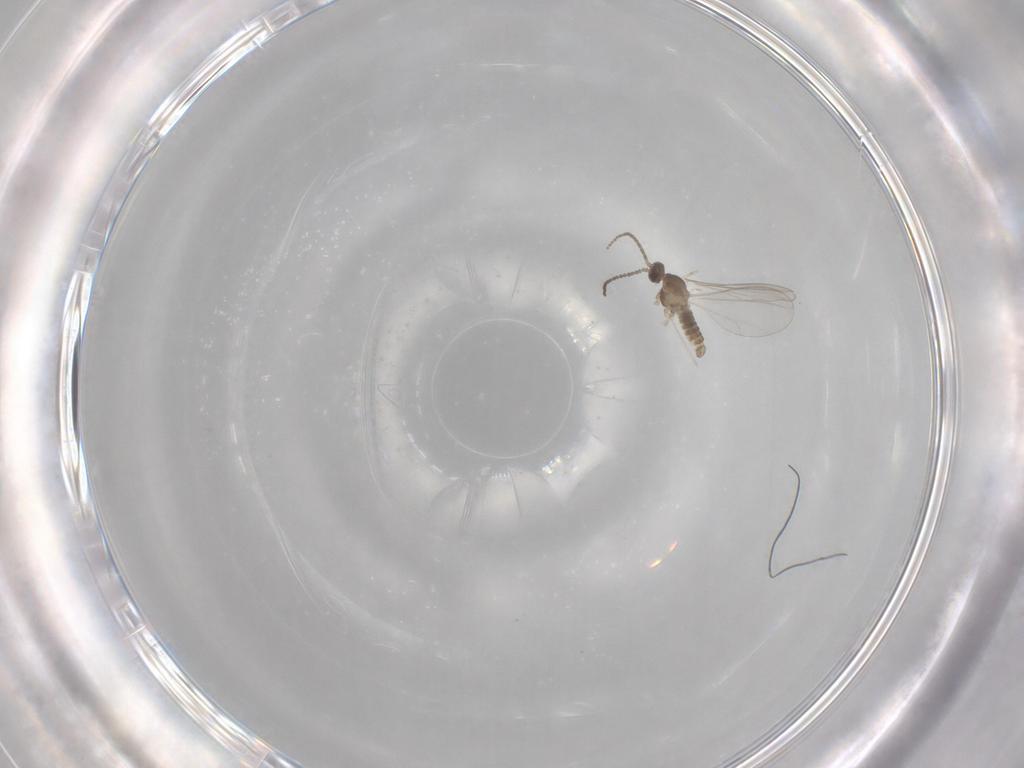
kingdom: Animalia
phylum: Arthropoda
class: Insecta
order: Diptera
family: Cecidomyiidae
